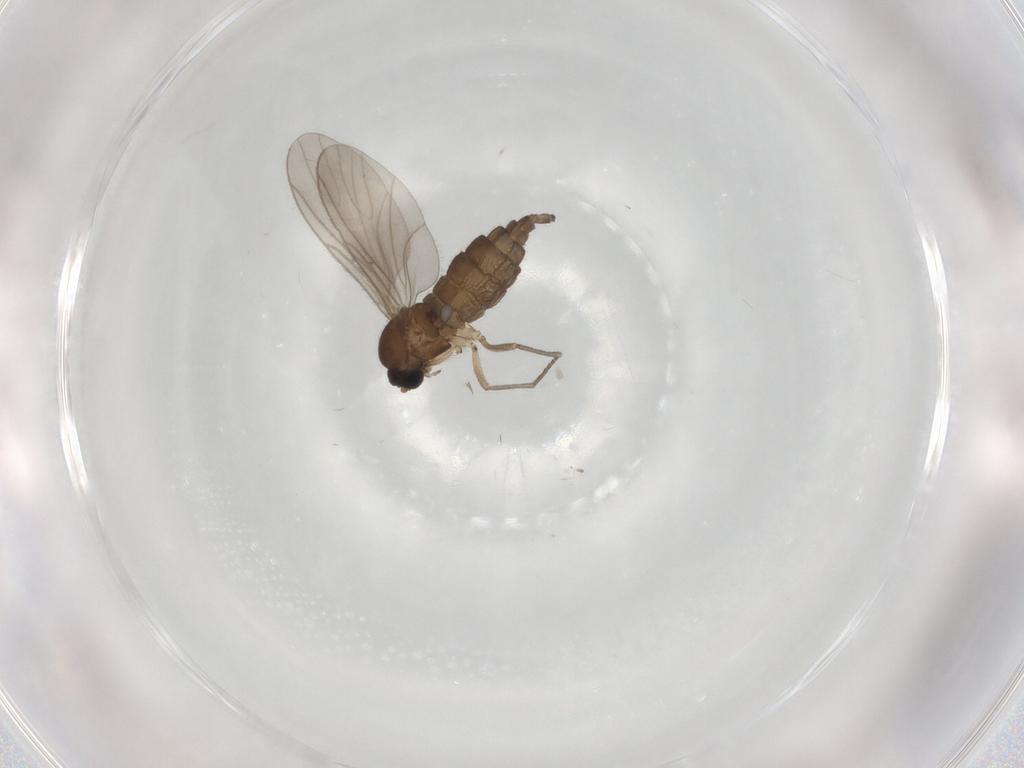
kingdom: Animalia
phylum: Arthropoda
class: Insecta
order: Diptera
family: Sciaridae
